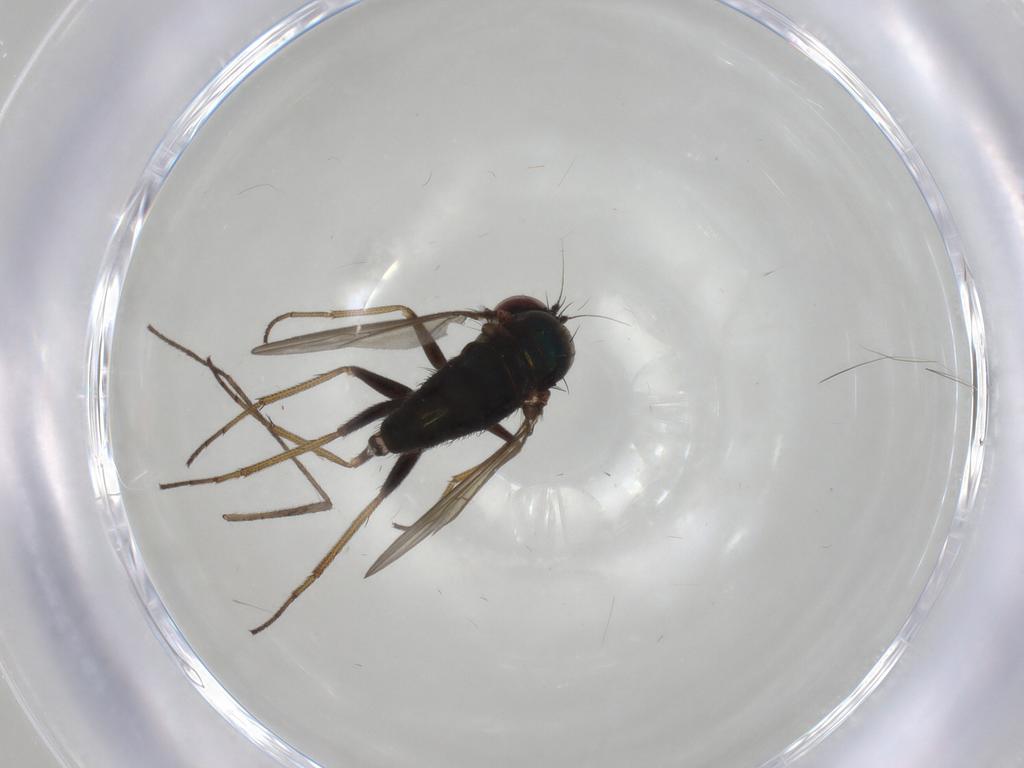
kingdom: Animalia
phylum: Arthropoda
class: Insecta
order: Diptera
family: Dolichopodidae
